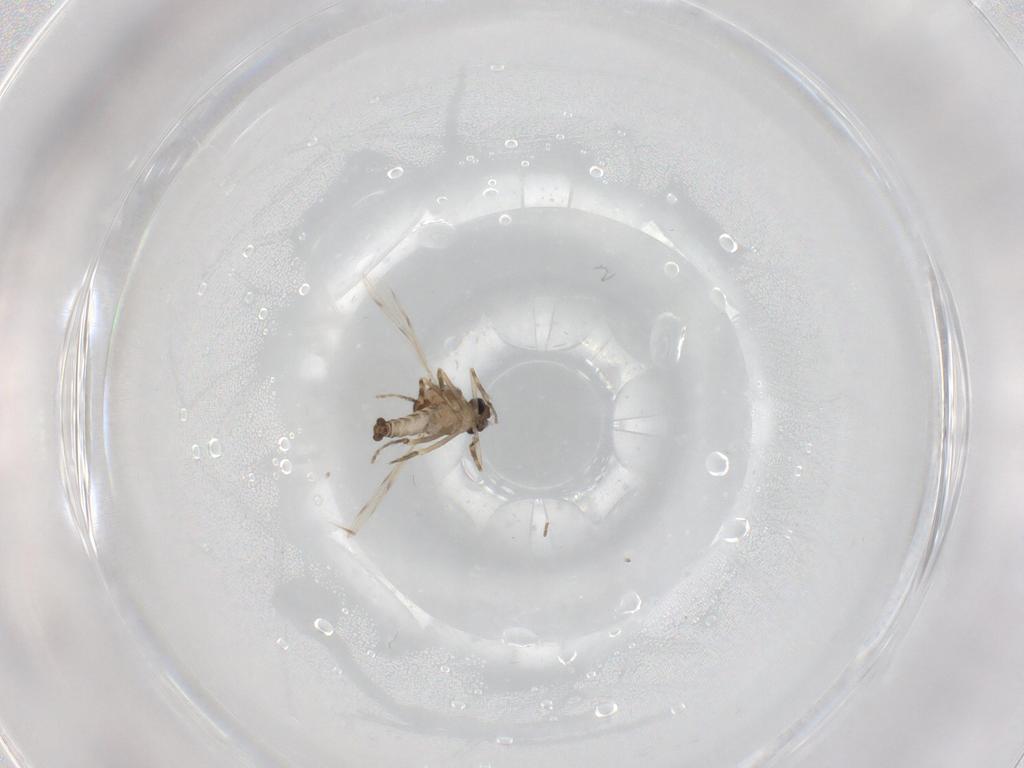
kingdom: Animalia
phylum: Arthropoda
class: Insecta
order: Diptera
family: Ceratopogonidae
